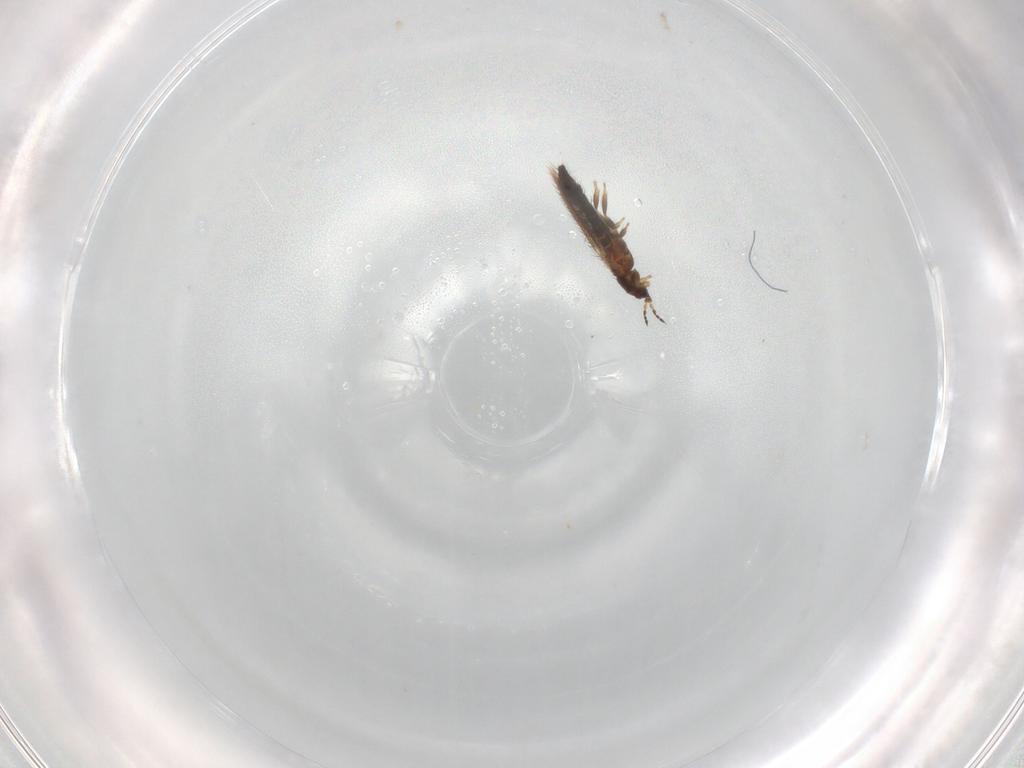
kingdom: Animalia
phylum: Arthropoda
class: Insecta
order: Thysanoptera
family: Thripidae
